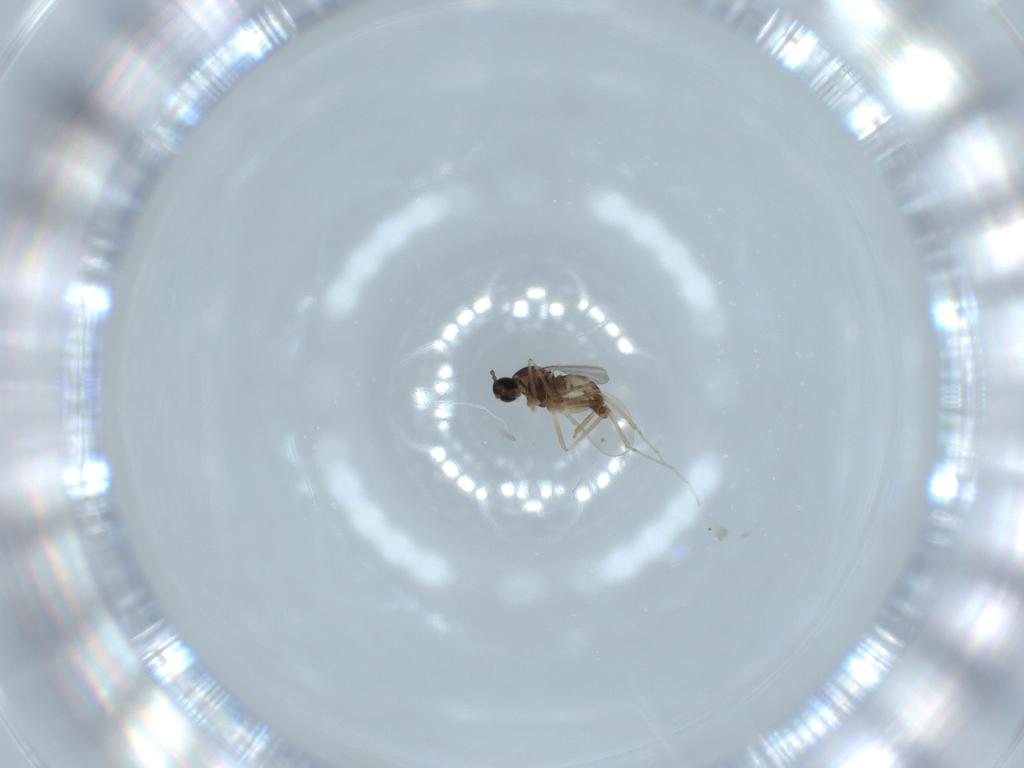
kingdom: Animalia
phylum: Arthropoda
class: Insecta
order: Diptera
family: Cecidomyiidae
